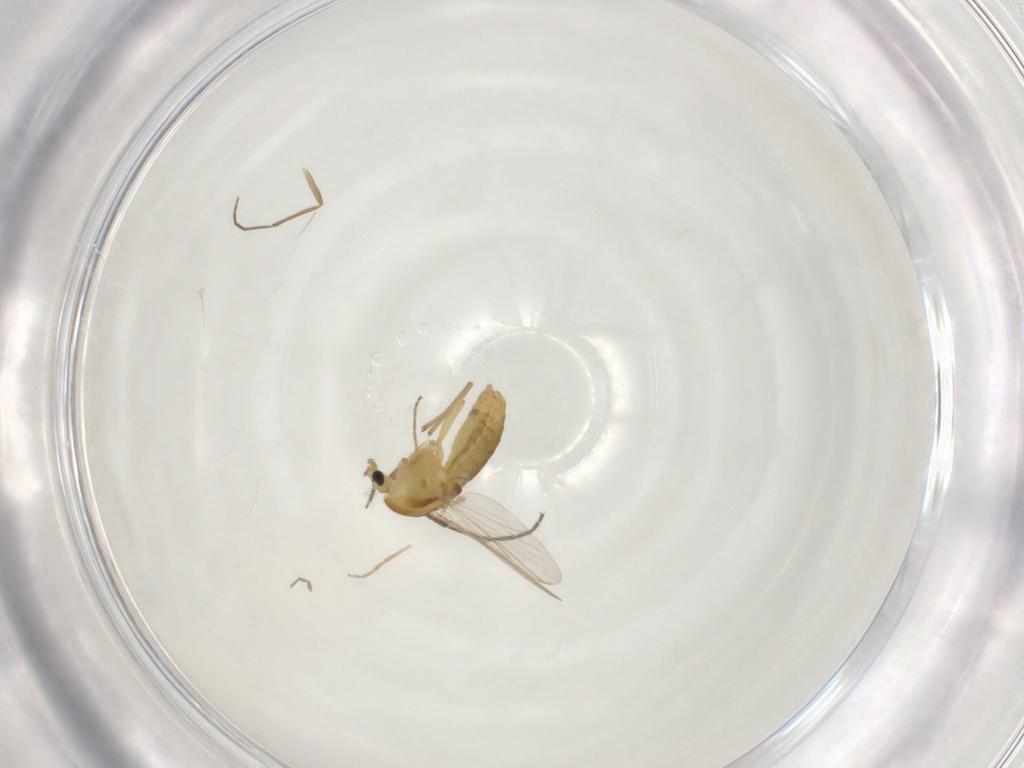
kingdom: Animalia
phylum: Arthropoda
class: Insecta
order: Diptera
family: Chironomidae
